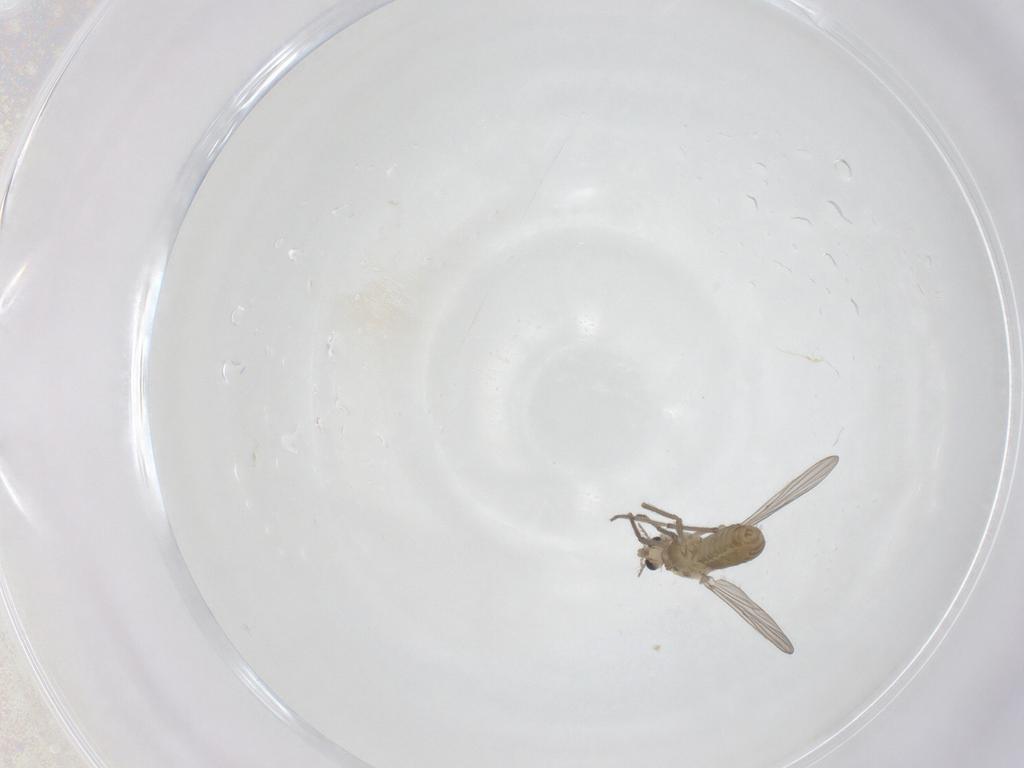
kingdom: Animalia
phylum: Arthropoda
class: Insecta
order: Diptera
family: Chironomidae
